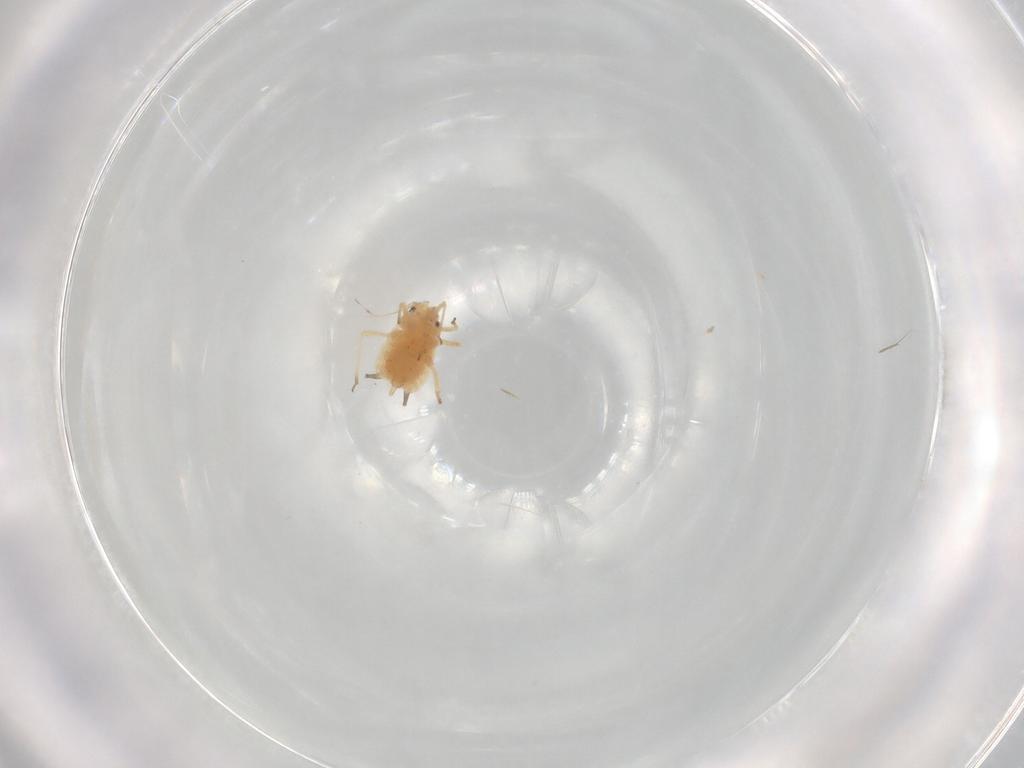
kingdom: Animalia
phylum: Arthropoda
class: Insecta
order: Hemiptera
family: Aphididae
